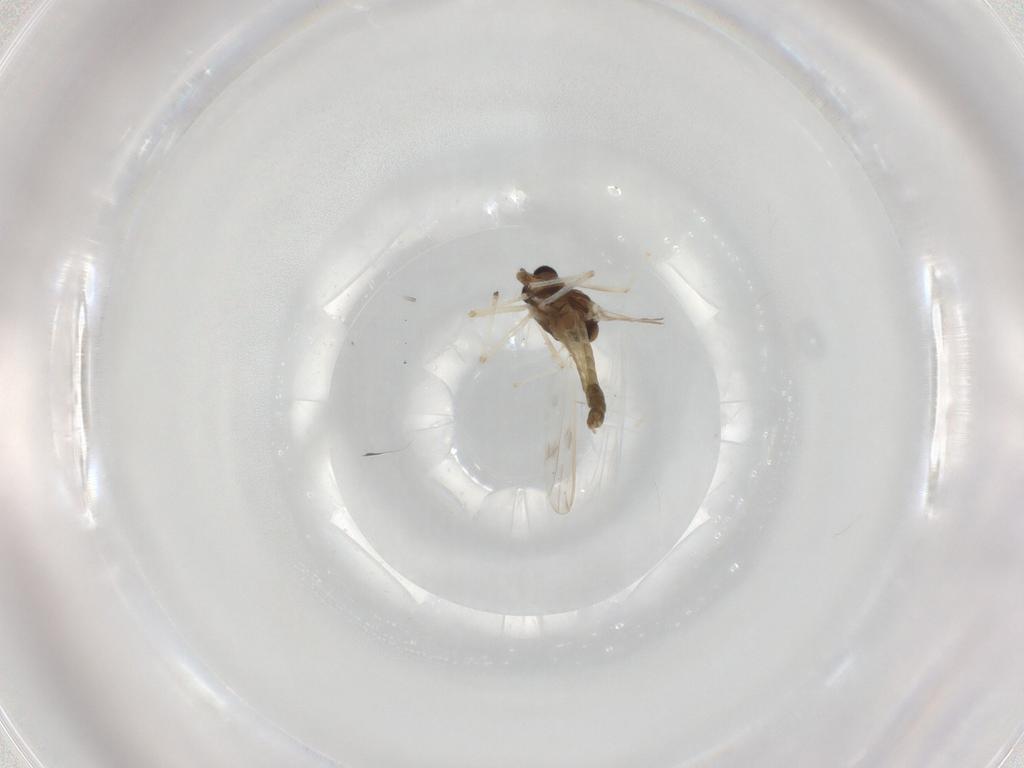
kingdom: Animalia
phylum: Arthropoda
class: Insecta
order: Diptera
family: Chironomidae
